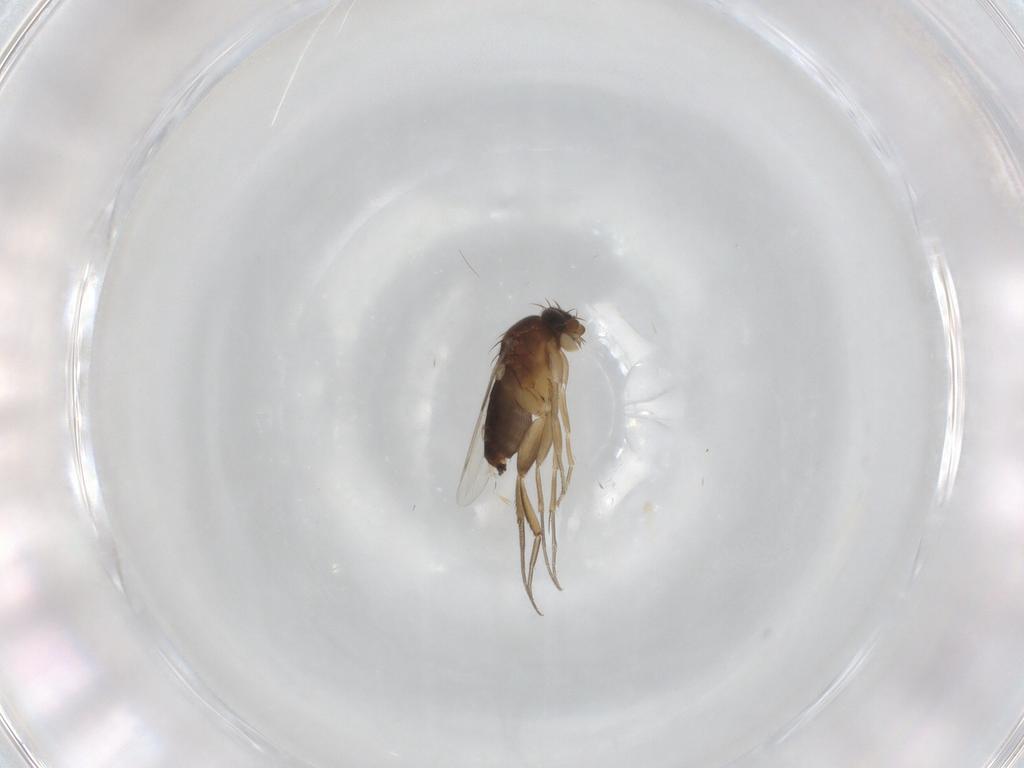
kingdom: Animalia
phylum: Arthropoda
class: Insecta
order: Diptera
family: Phoridae
